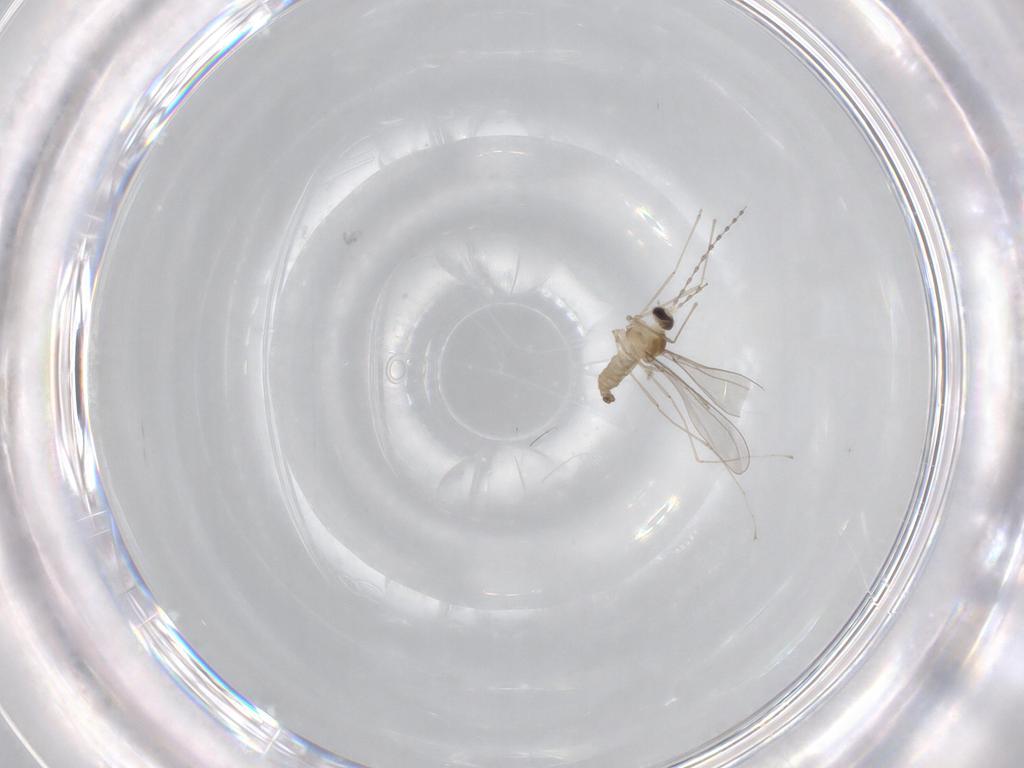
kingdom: Animalia
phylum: Arthropoda
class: Insecta
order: Diptera
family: Cecidomyiidae
